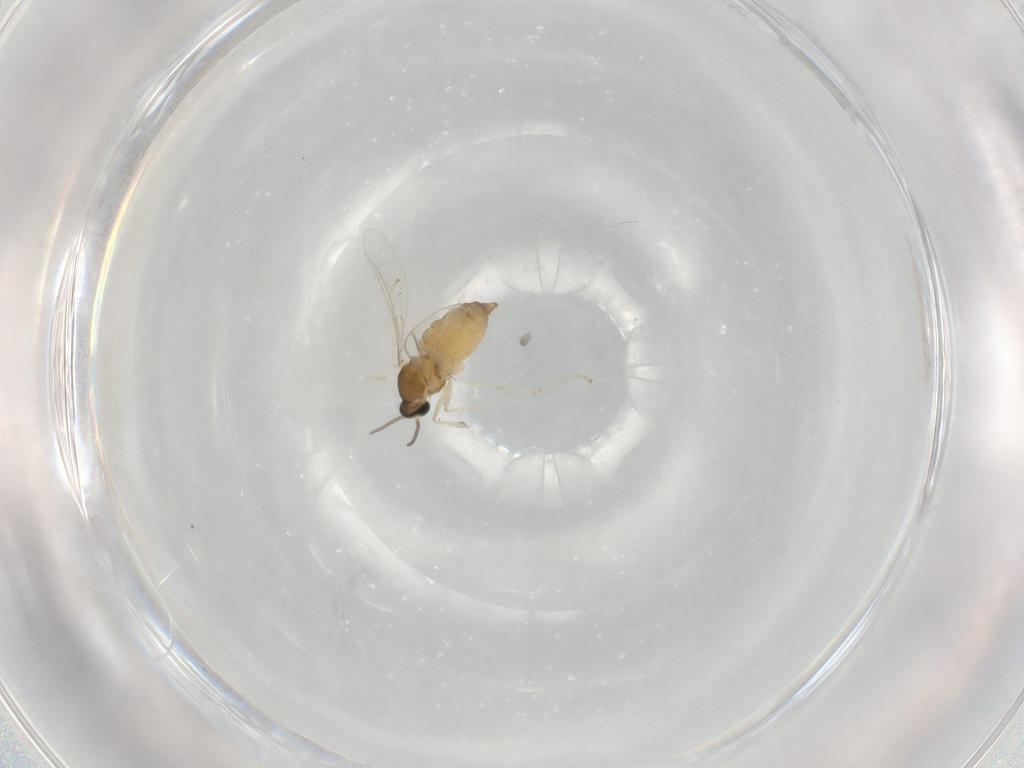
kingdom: Animalia
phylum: Arthropoda
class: Insecta
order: Diptera
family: Cecidomyiidae
